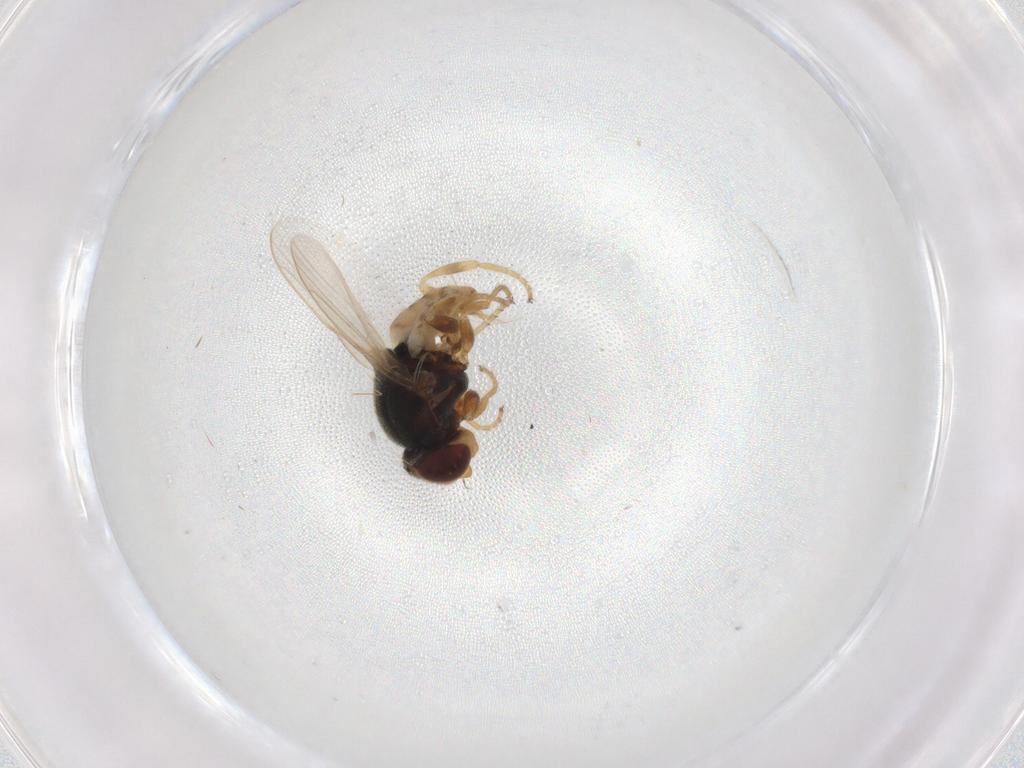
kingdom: Animalia
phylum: Arthropoda
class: Insecta
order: Diptera
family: Chloropidae
